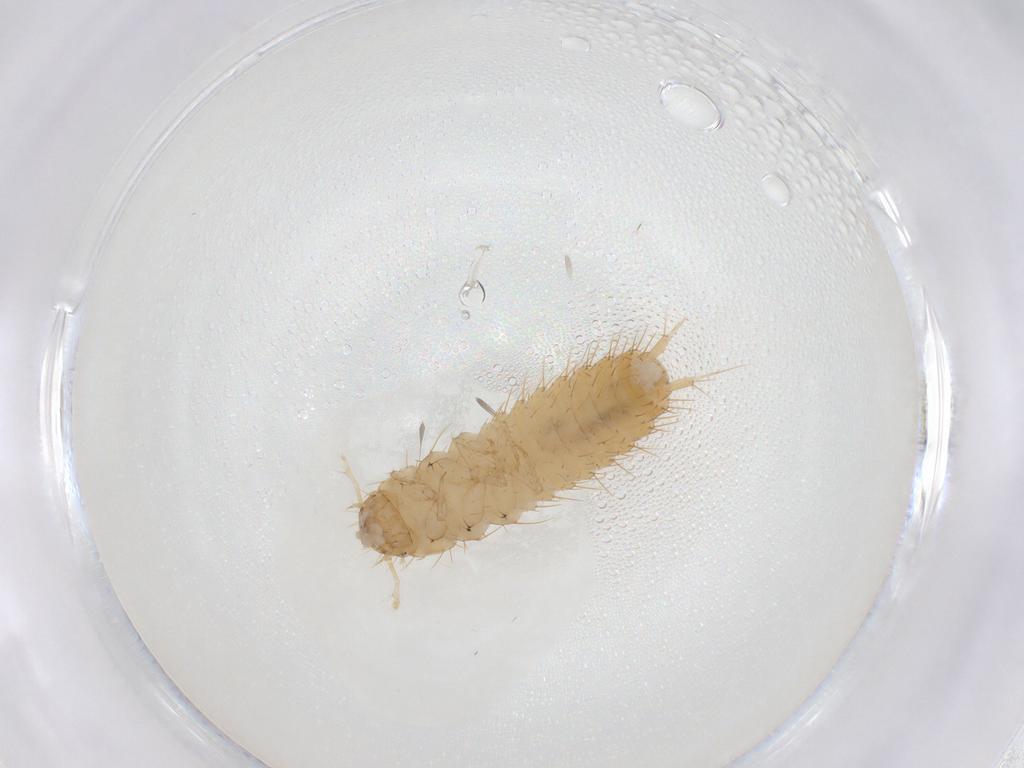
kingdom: Animalia
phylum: Arthropoda
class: Insecta
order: Coleoptera
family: Staphylinidae
